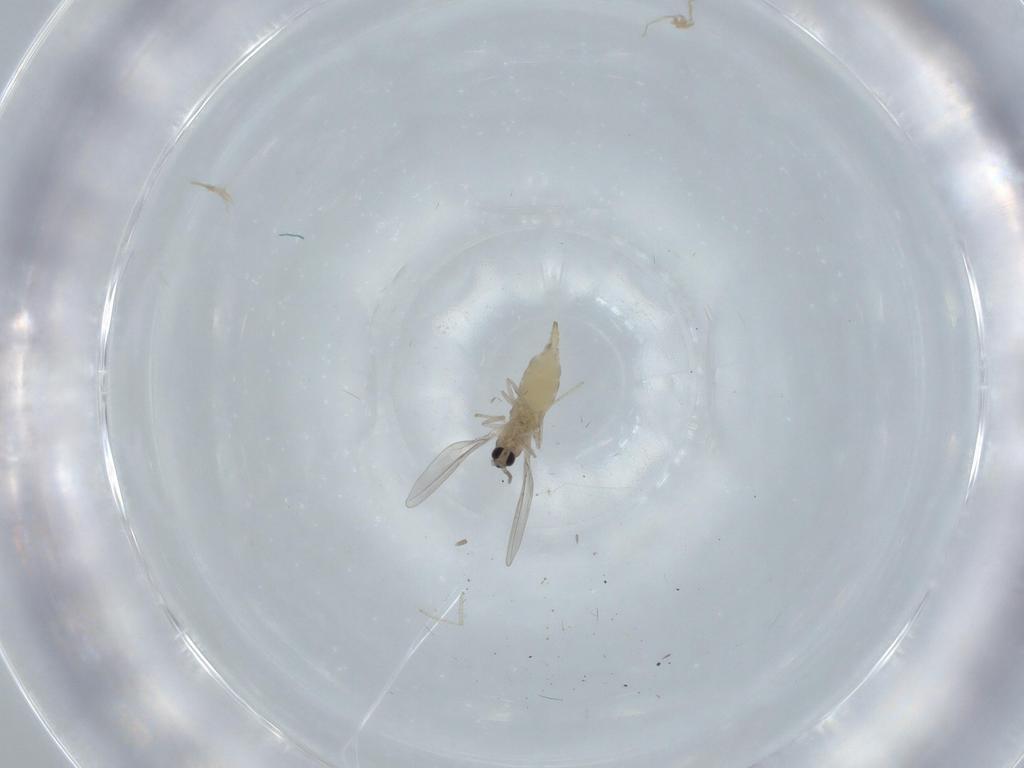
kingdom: Animalia
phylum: Arthropoda
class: Insecta
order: Diptera
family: Cecidomyiidae
